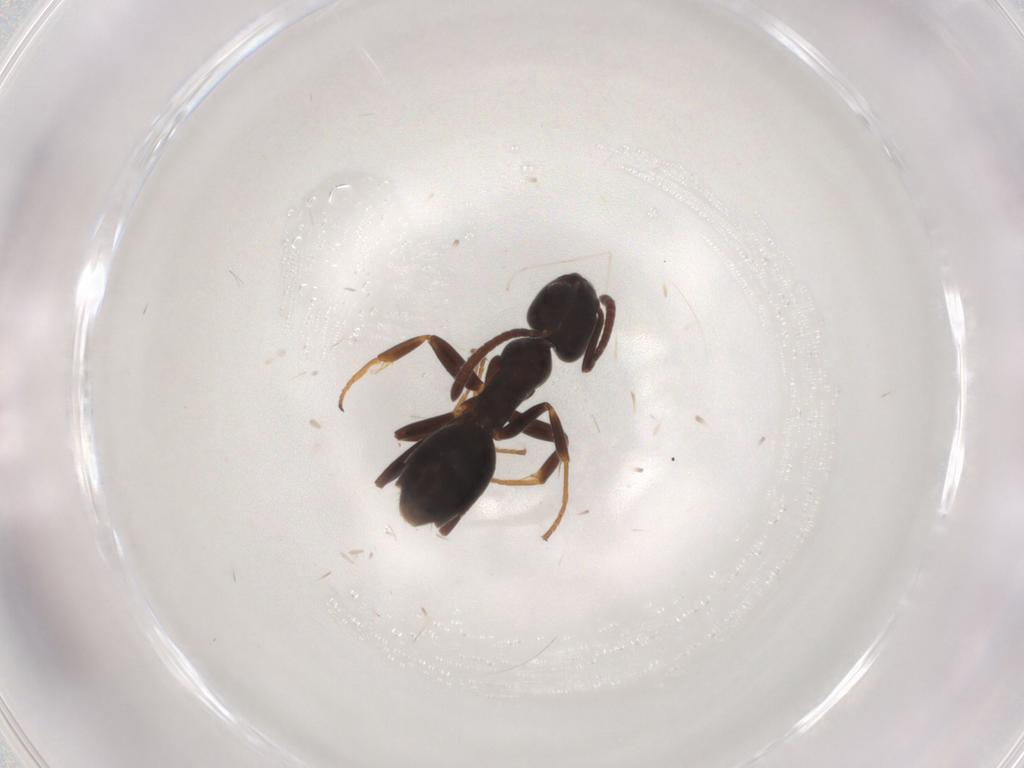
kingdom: Animalia
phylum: Arthropoda
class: Insecta
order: Hymenoptera
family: Formicidae
